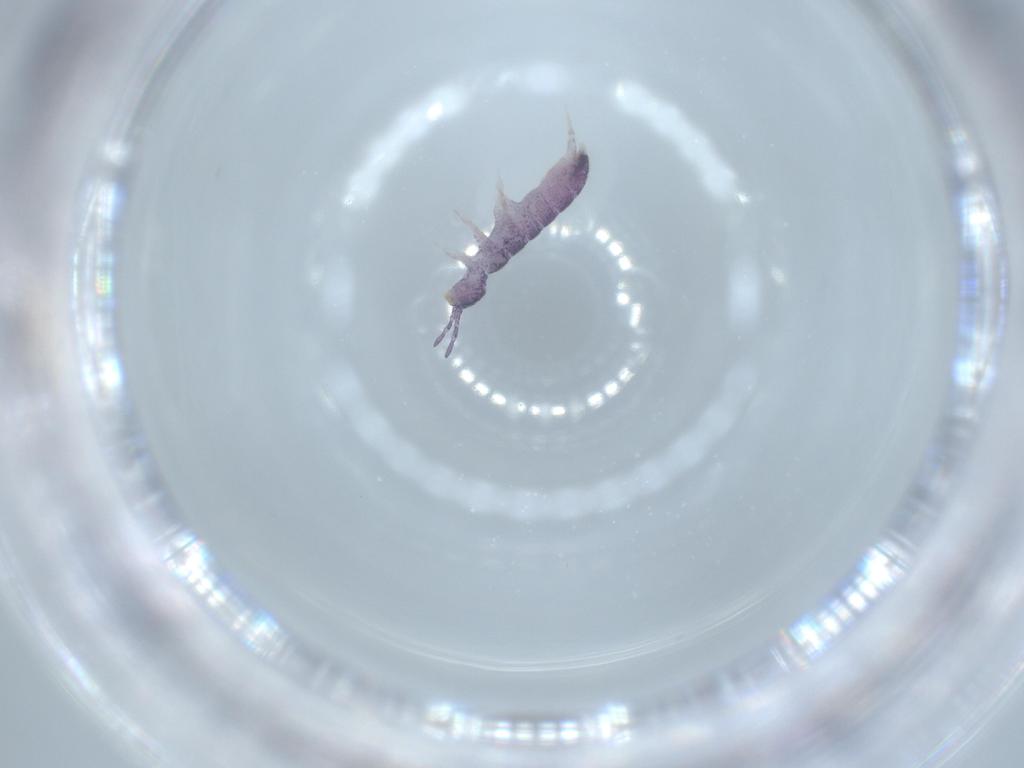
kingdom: Animalia
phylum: Arthropoda
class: Collembola
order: Entomobryomorpha
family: Isotomidae
